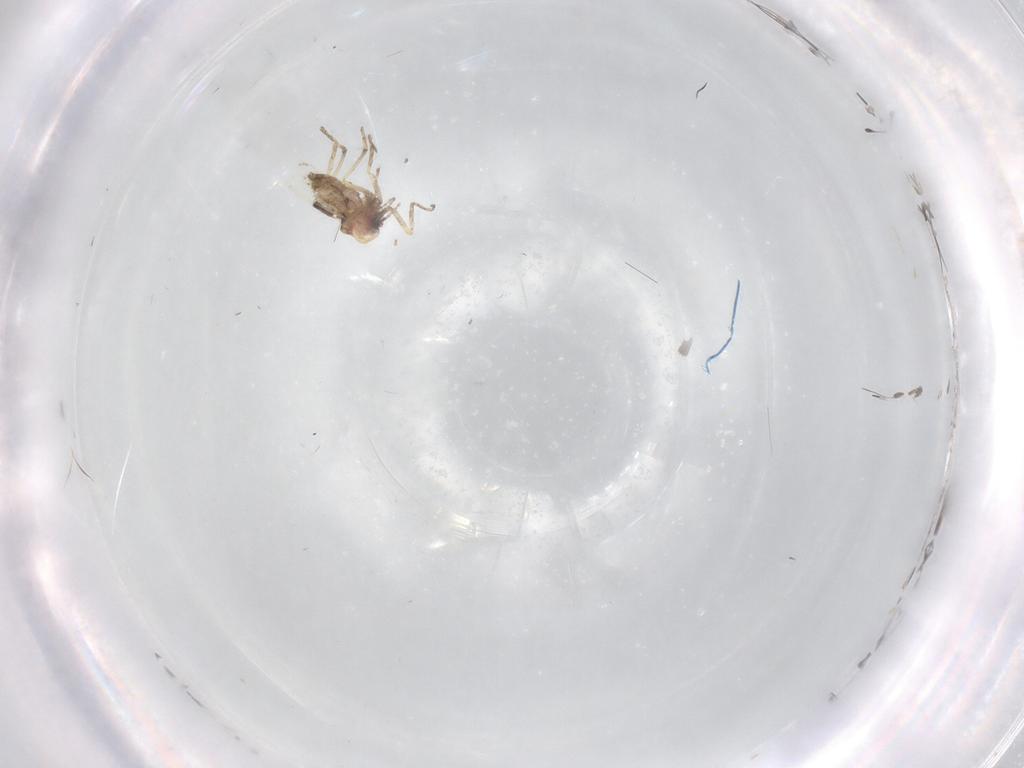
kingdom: Animalia
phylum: Arthropoda
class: Insecta
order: Diptera
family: Ceratopogonidae
